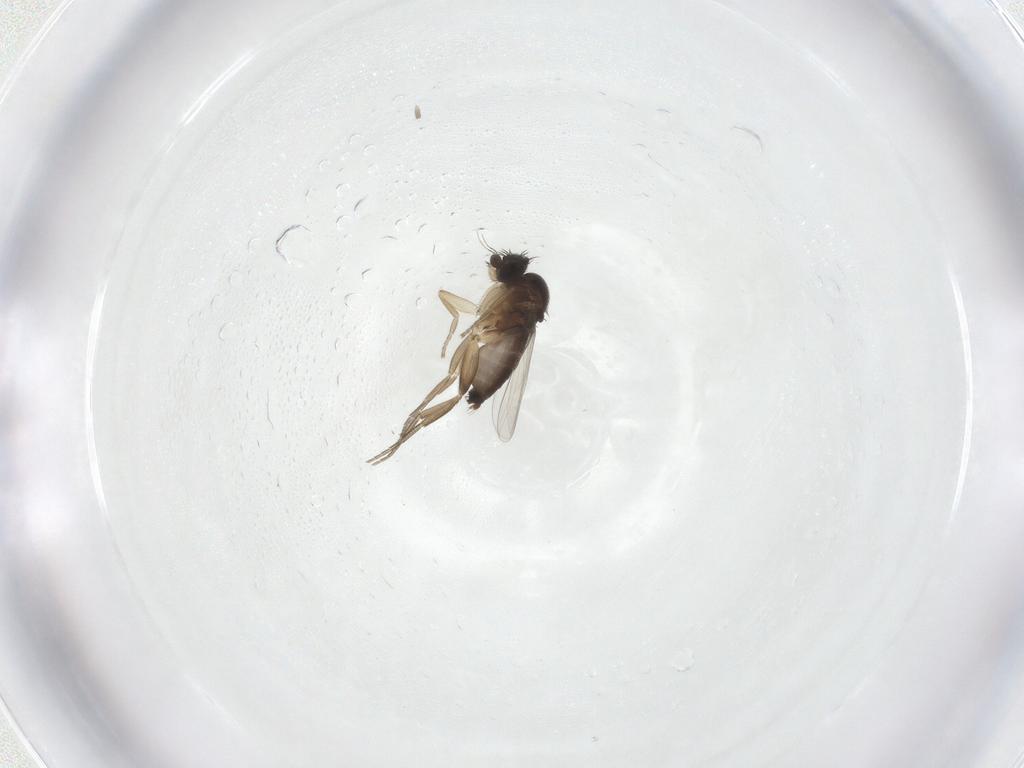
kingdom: Animalia
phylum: Arthropoda
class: Insecta
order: Diptera
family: Phoridae
